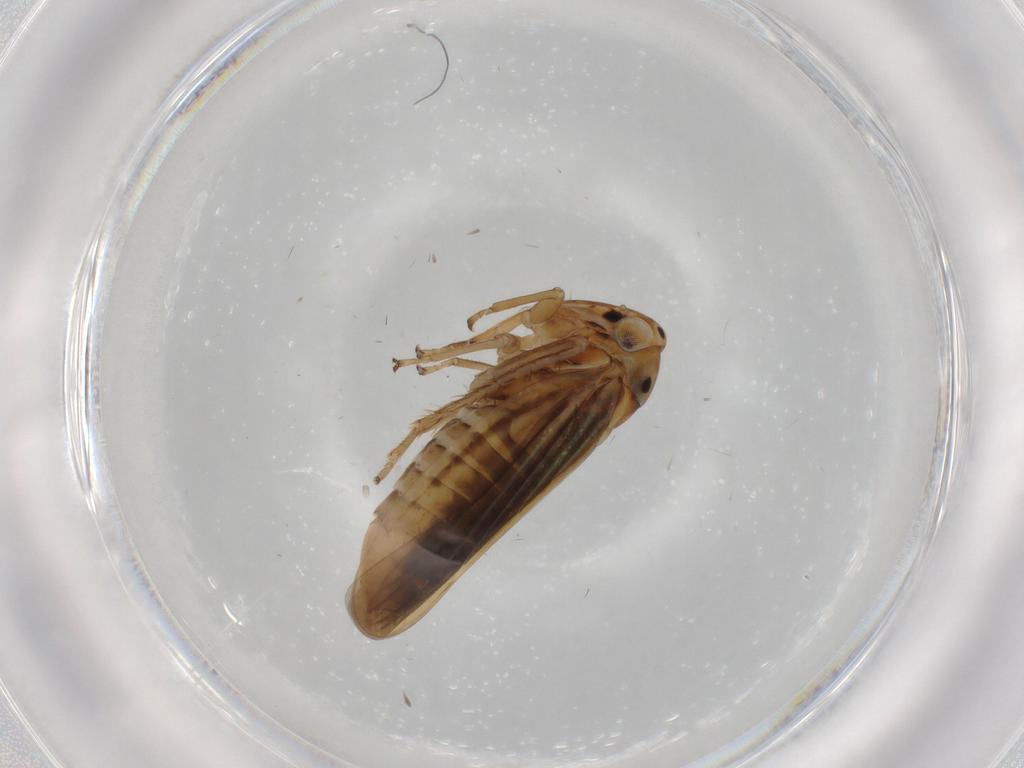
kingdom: Animalia
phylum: Arthropoda
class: Insecta
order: Hemiptera
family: Cicadellidae
